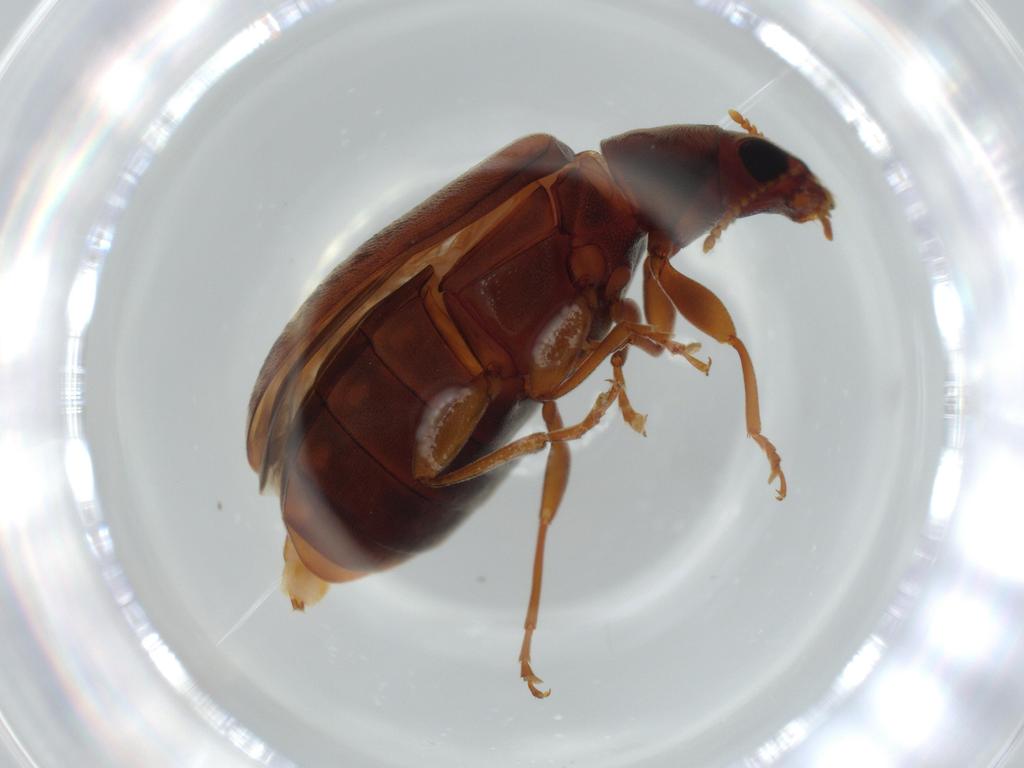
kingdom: Animalia
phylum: Arthropoda
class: Insecta
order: Coleoptera
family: Mycteridae
